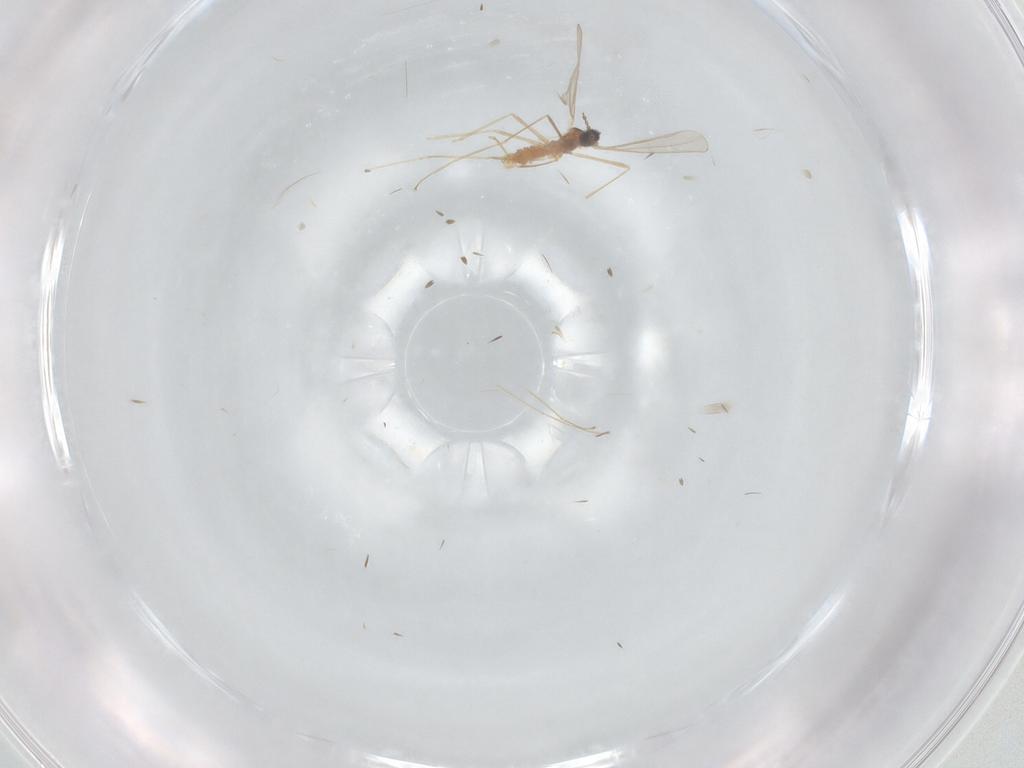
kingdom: Animalia
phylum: Arthropoda
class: Insecta
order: Diptera
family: Cecidomyiidae
